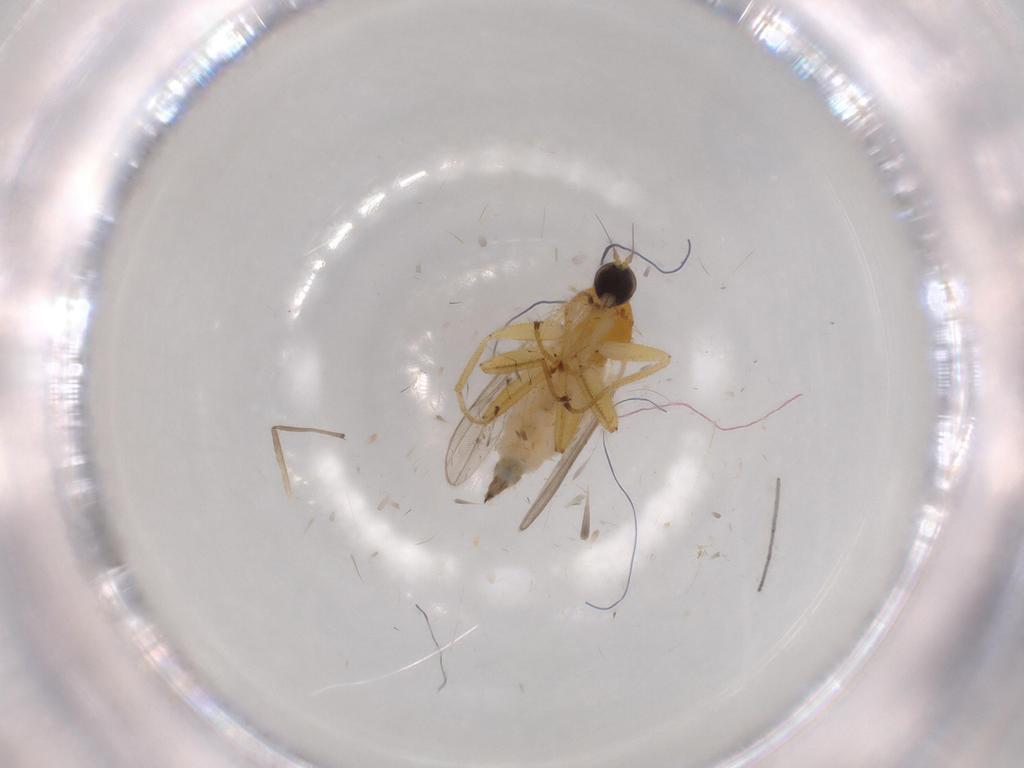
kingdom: Animalia
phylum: Arthropoda
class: Insecta
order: Diptera
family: Hybotidae
